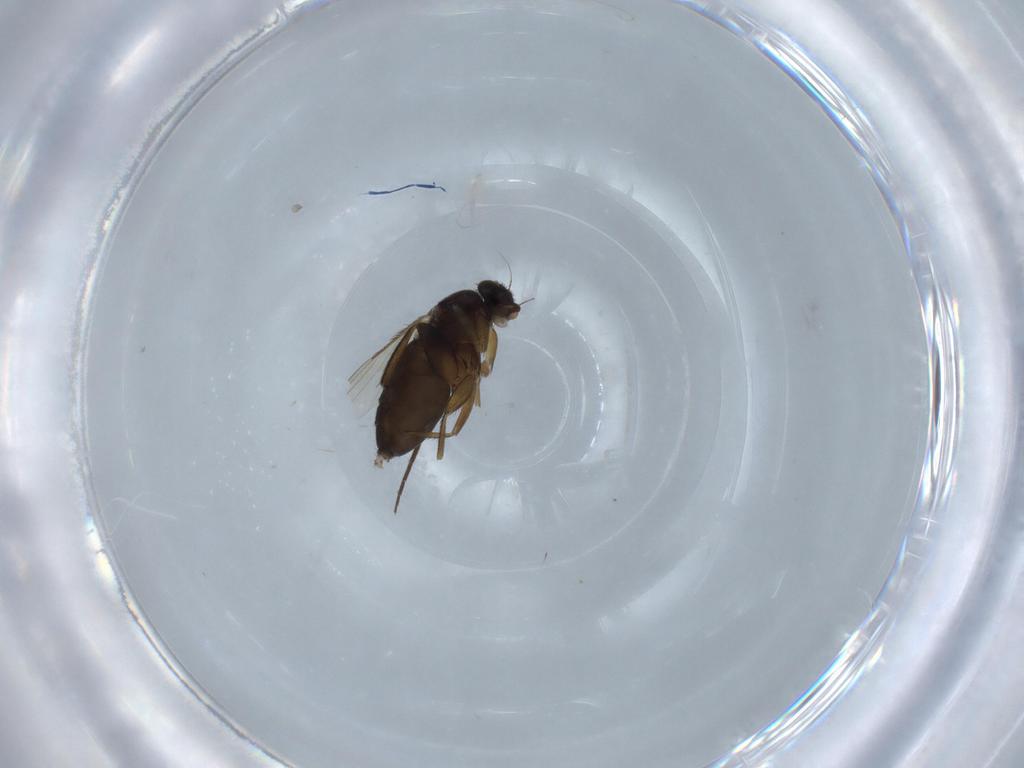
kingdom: Animalia
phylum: Arthropoda
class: Insecta
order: Diptera
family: Phoridae
